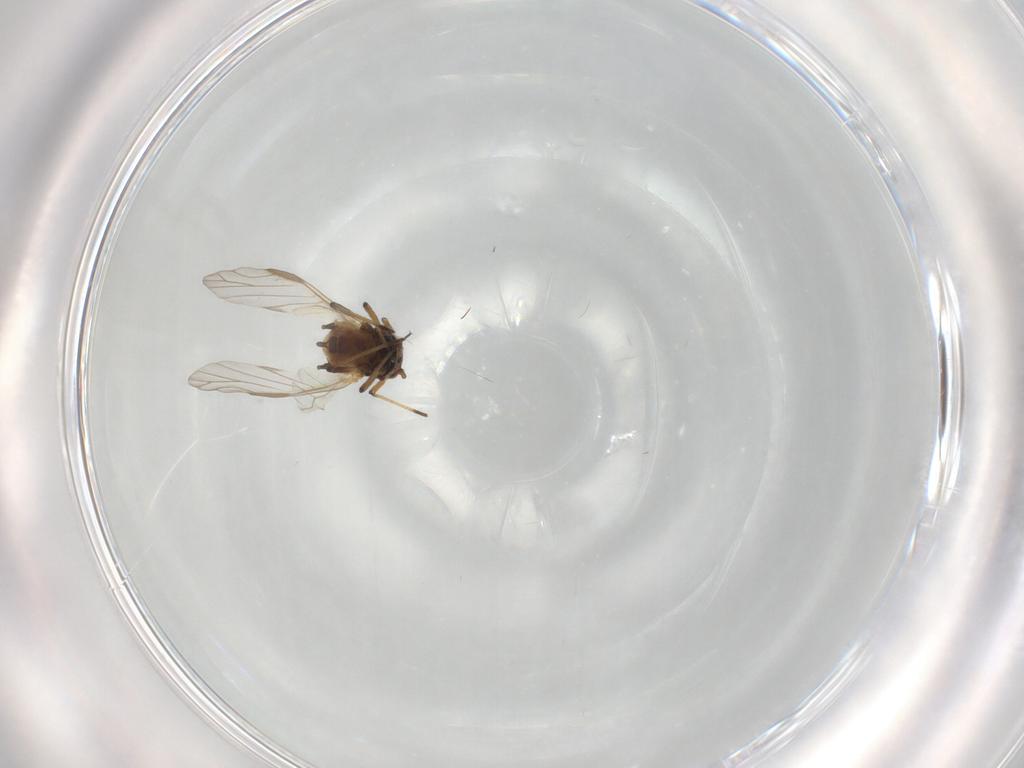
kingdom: Animalia
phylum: Arthropoda
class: Insecta
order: Hemiptera
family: Aphididae
